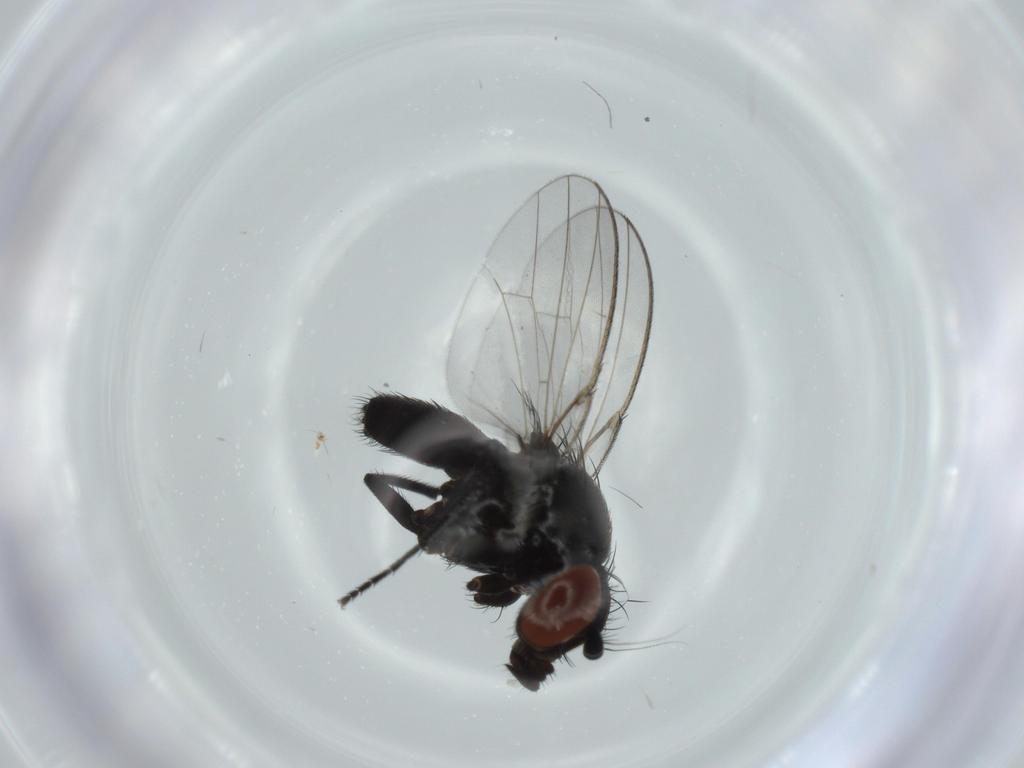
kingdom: Animalia
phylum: Arthropoda
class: Insecta
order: Diptera
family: Milichiidae
